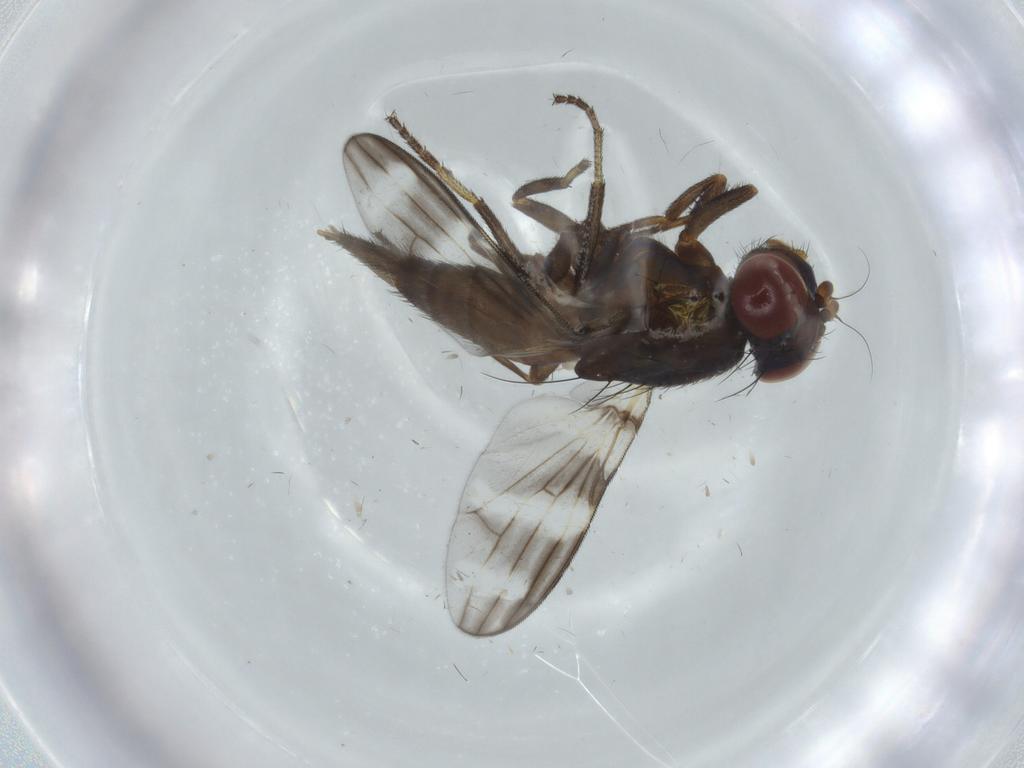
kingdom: Animalia
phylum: Arthropoda
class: Insecta
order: Diptera
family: Ulidiidae
